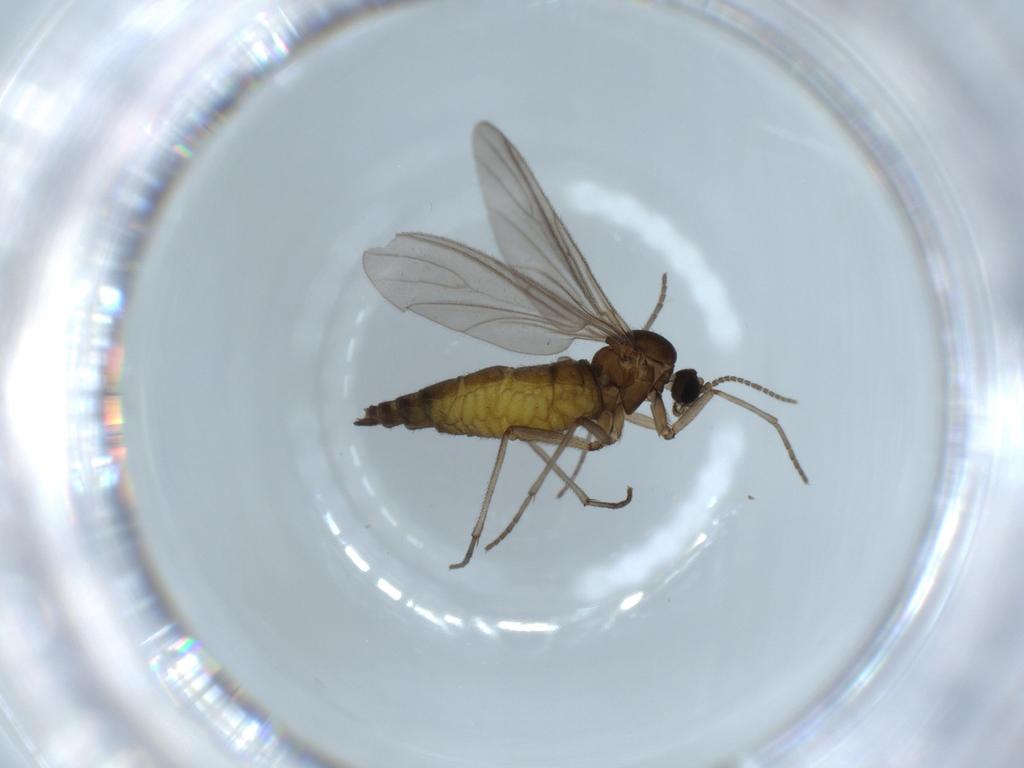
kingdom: Animalia
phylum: Arthropoda
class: Insecta
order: Diptera
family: Sciaridae
